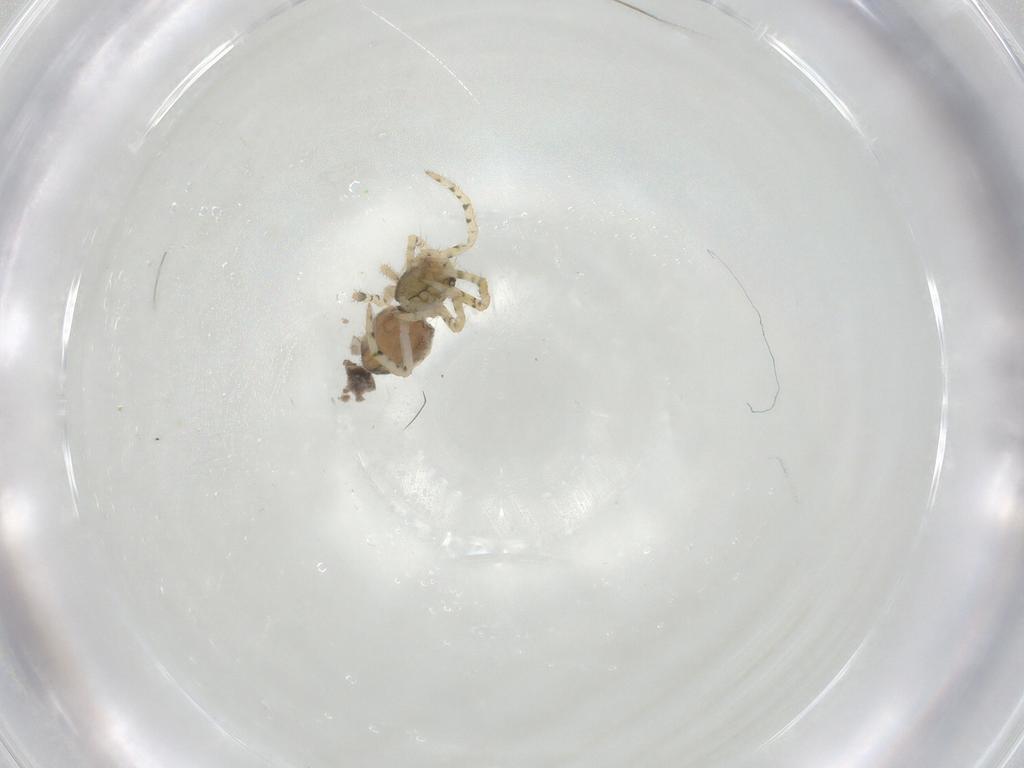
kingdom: Animalia
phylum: Arthropoda
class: Arachnida
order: Araneae
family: Theridiidae
